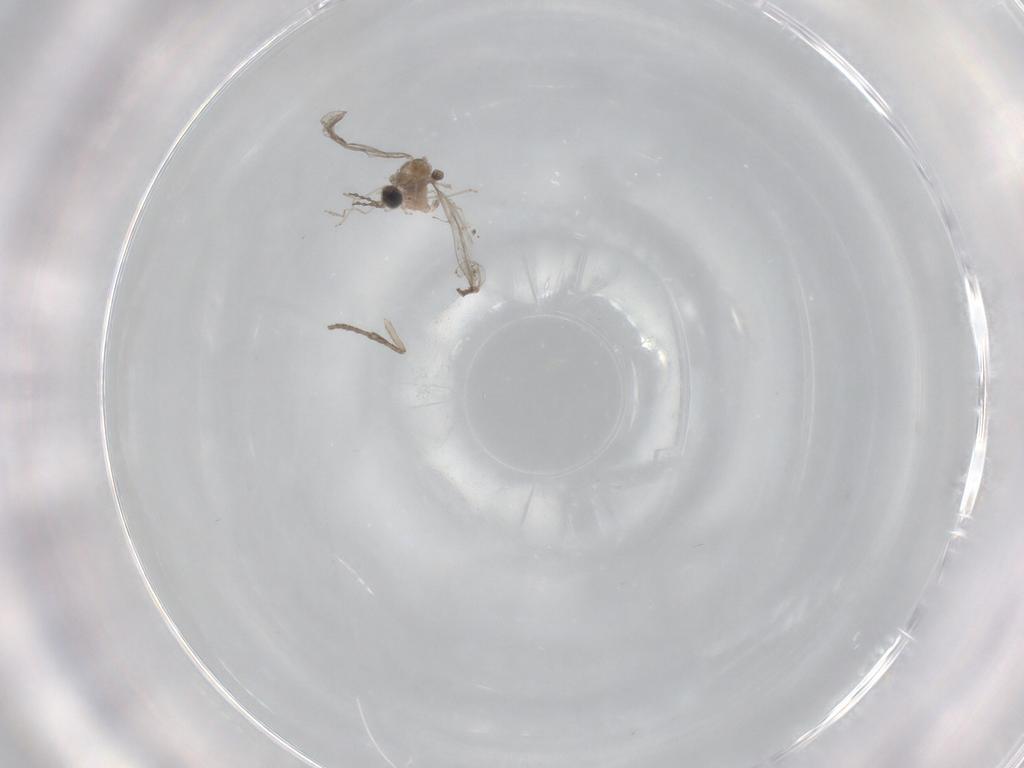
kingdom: Animalia
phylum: Arthropoda
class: Insecta
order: Diptera
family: Cecidomyiidae
